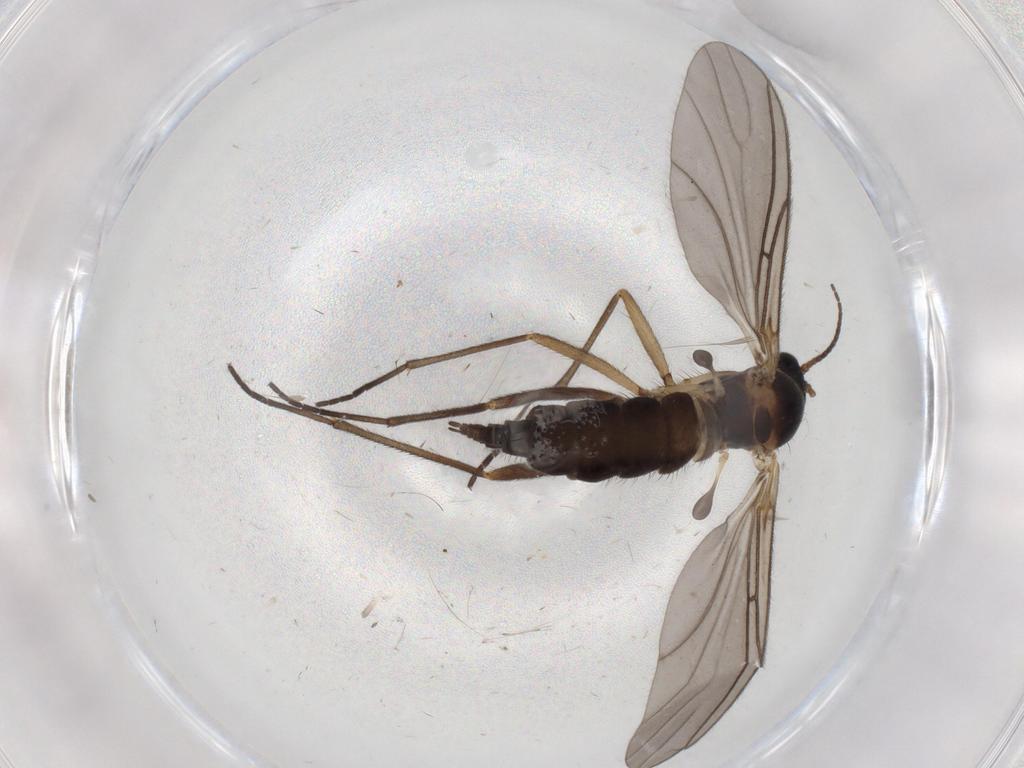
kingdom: Animalia
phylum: Arthropoda
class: Insecta
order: Diptera
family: Sciaridae
